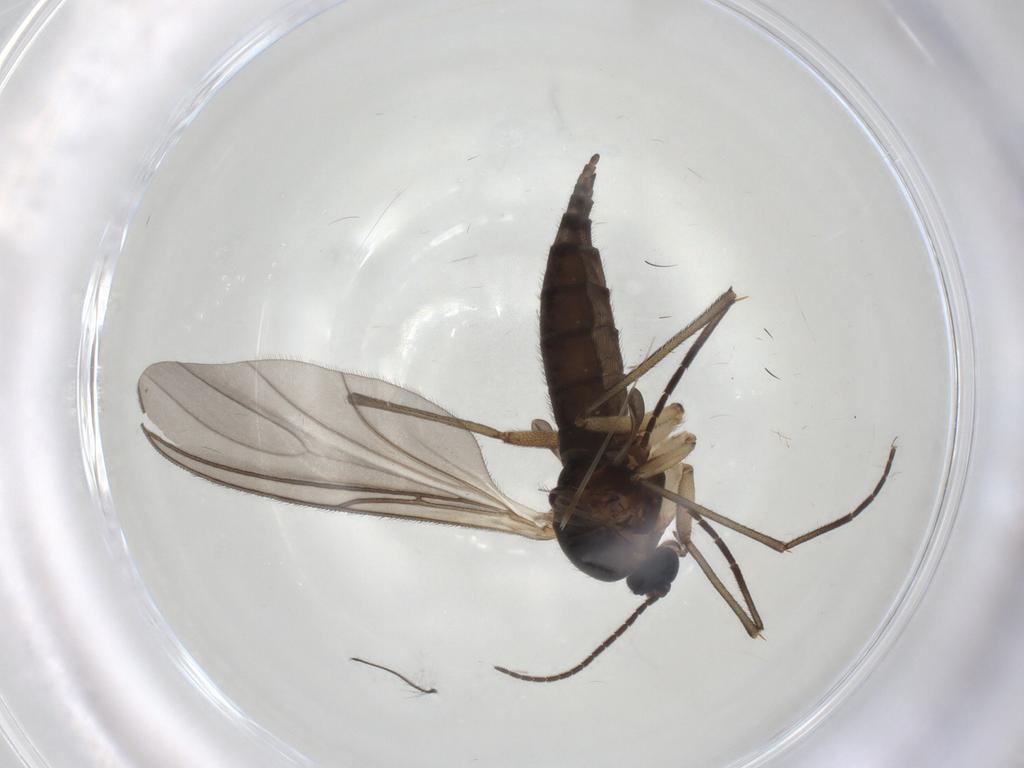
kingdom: Animalia
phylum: Arthropoda
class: Insecta
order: Diptera
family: Sciaridae
